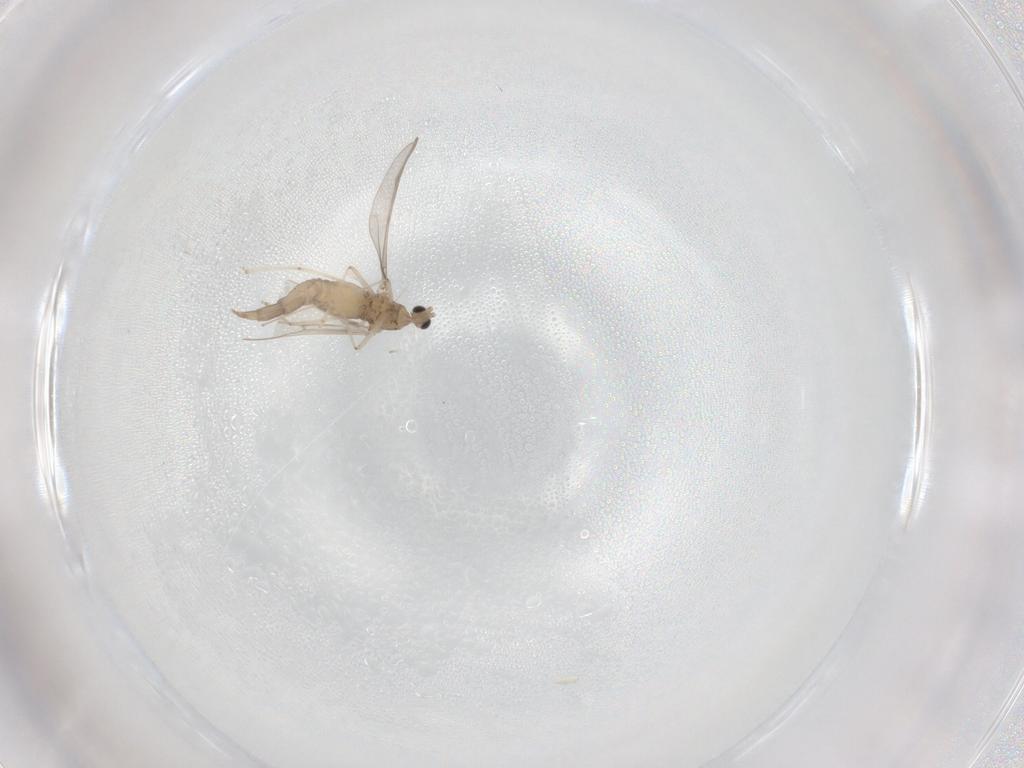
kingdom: Animalia
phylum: Arthropoda
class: Insecta
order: Diptera
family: Cecidomyiidae
